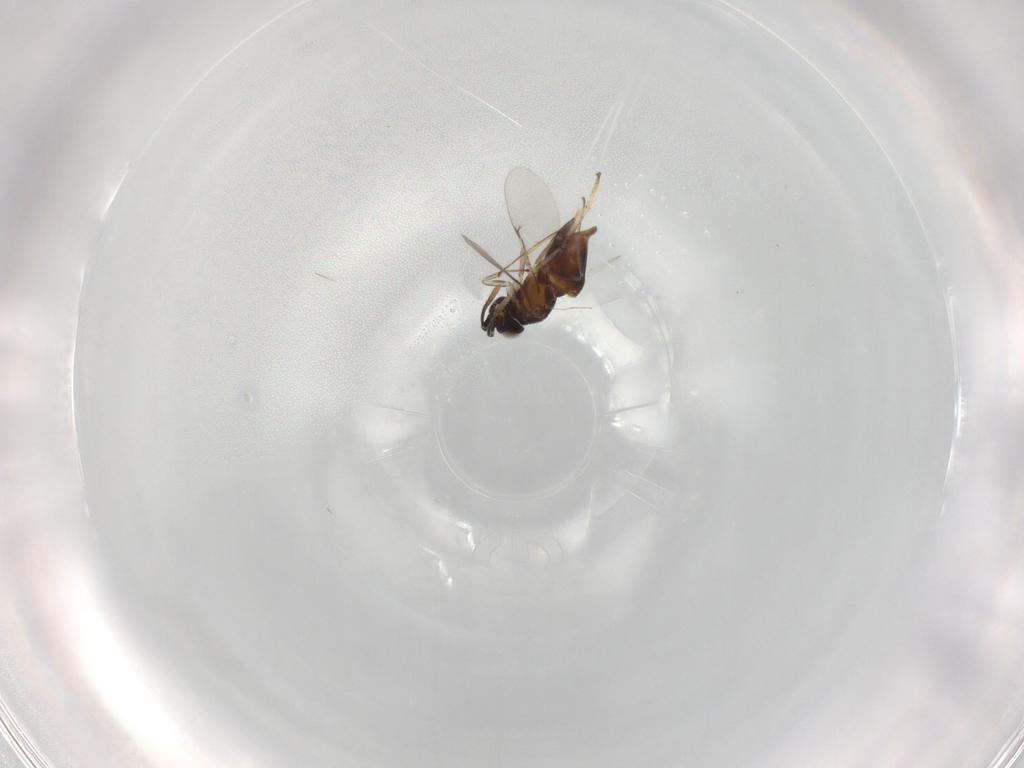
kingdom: Animalia
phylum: Arthropoda
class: Insecta
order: Hymenoptera
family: Encyrtidae
